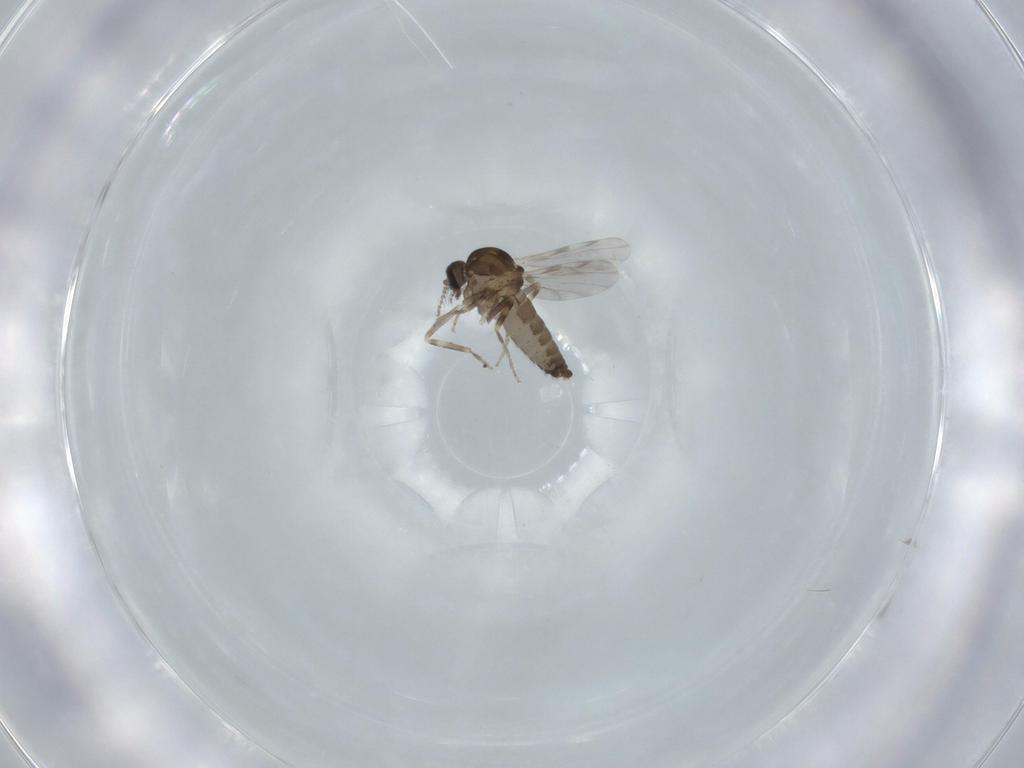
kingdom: Animalia
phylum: Arthropoda
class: Insecta
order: Diptera
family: Ceratopogonidae
